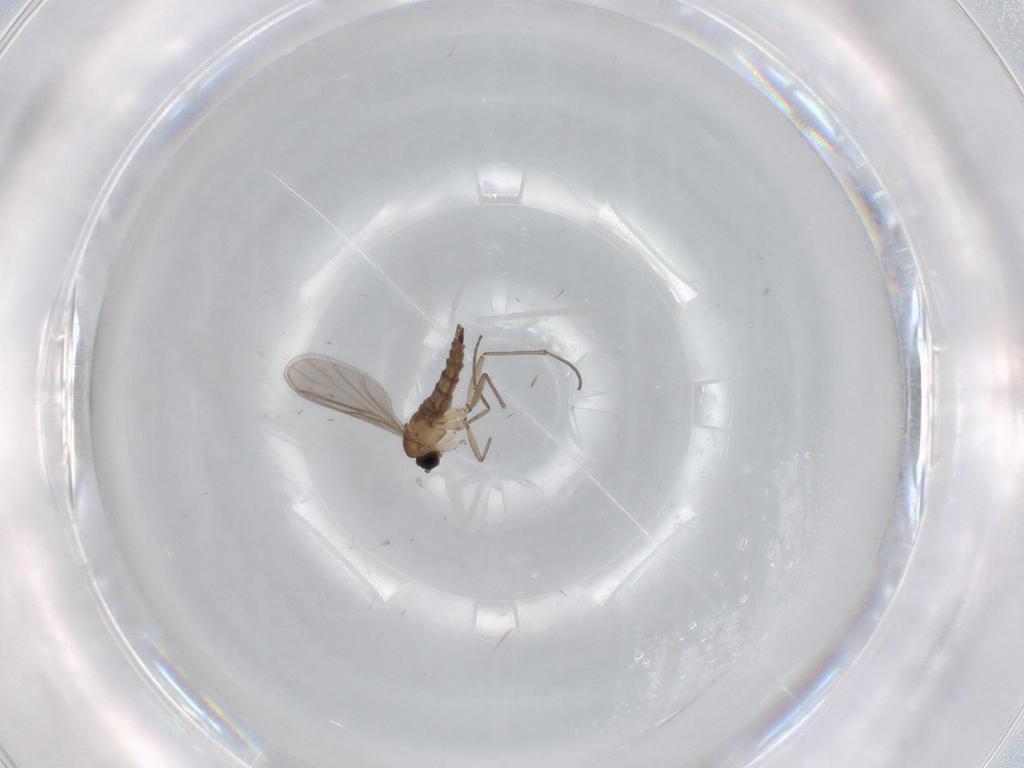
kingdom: Animalia
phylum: Arthropoda
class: Insecta
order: Diptera
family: Sciaridae
